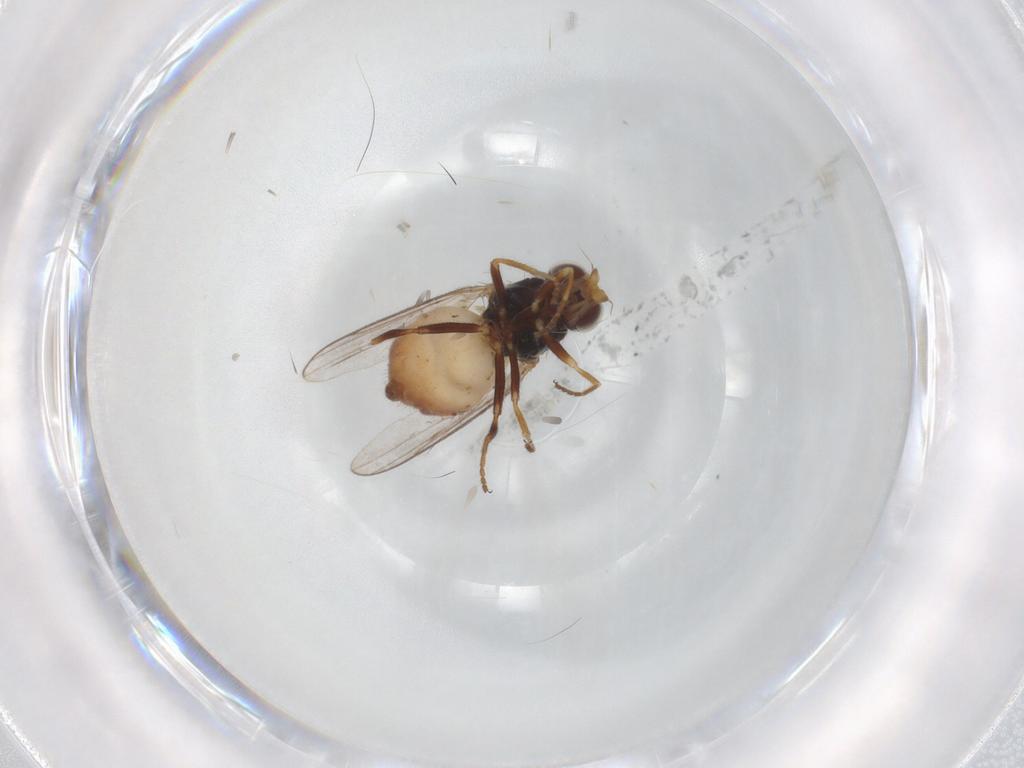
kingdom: Animalia
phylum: Arthropoda
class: Insecta
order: Diptera
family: Chloropidae
